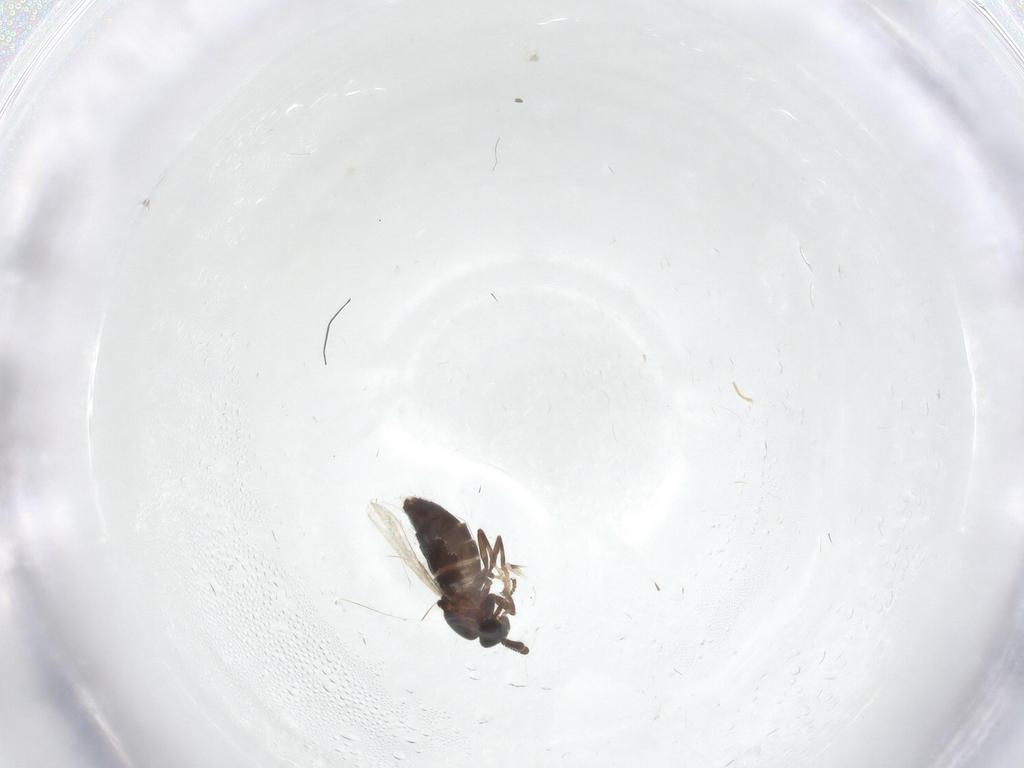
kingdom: Animalia
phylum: Arthropoda
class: Insecta
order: Diptera
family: Scatopsidae
